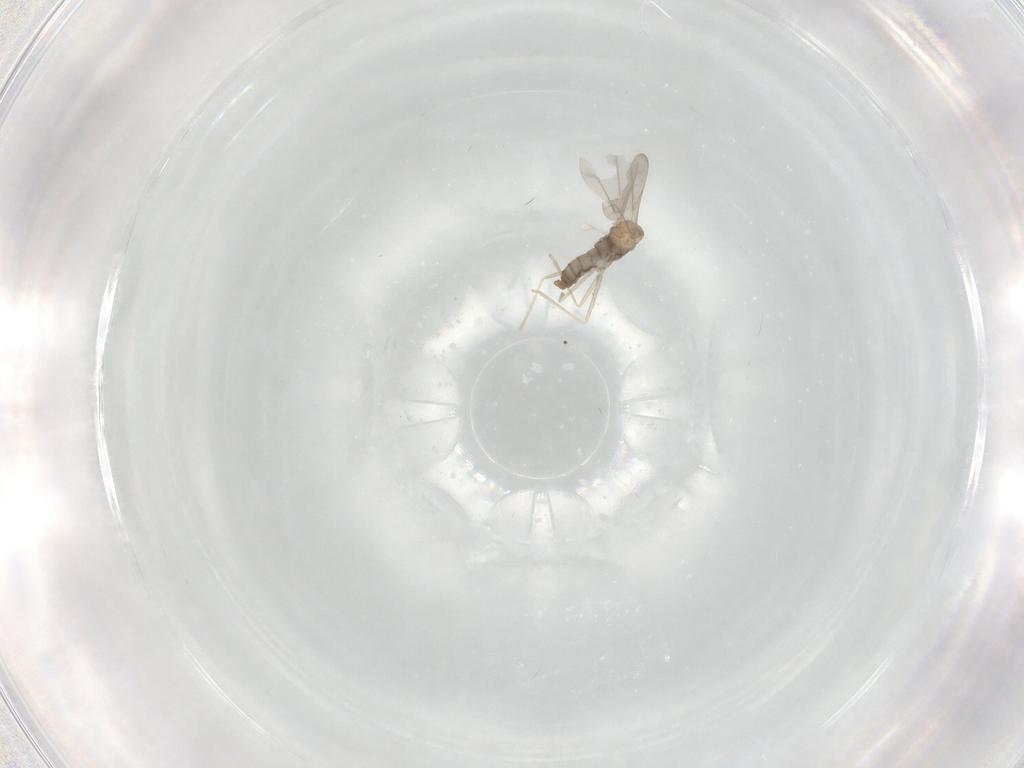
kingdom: Animalia
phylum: Arthropoda
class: Insecta
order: Diptera
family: Cecidomyiidae
